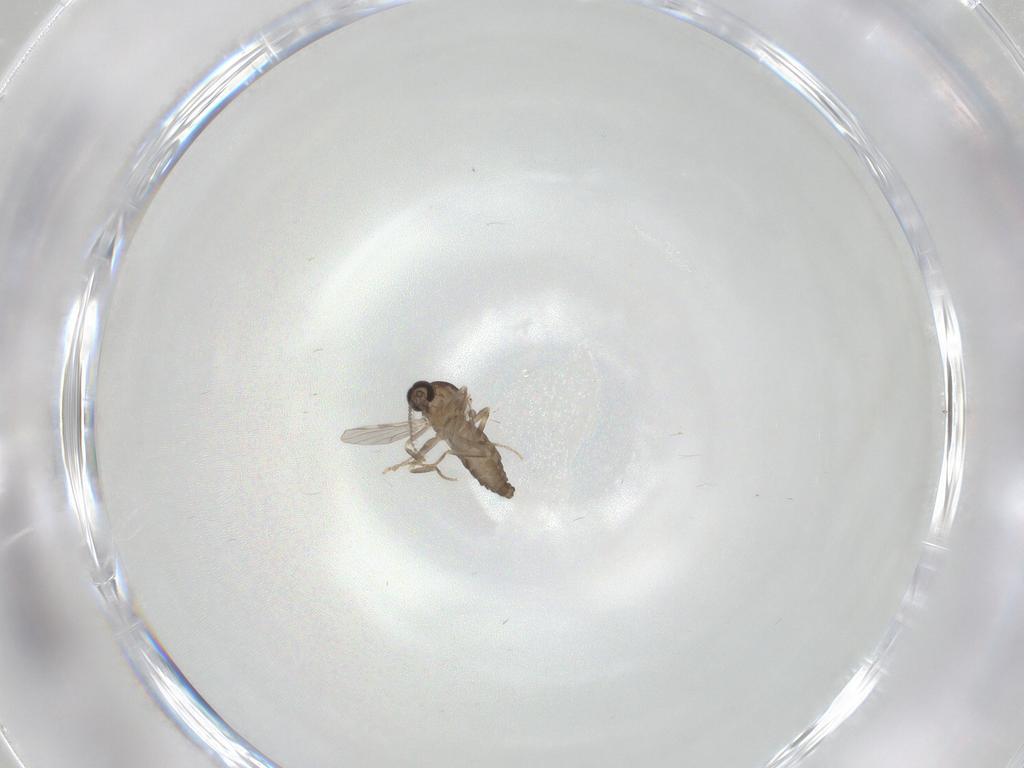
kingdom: Animalia
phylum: Arthropoda
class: Insecta
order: Diptera
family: Ceratopogonidae
